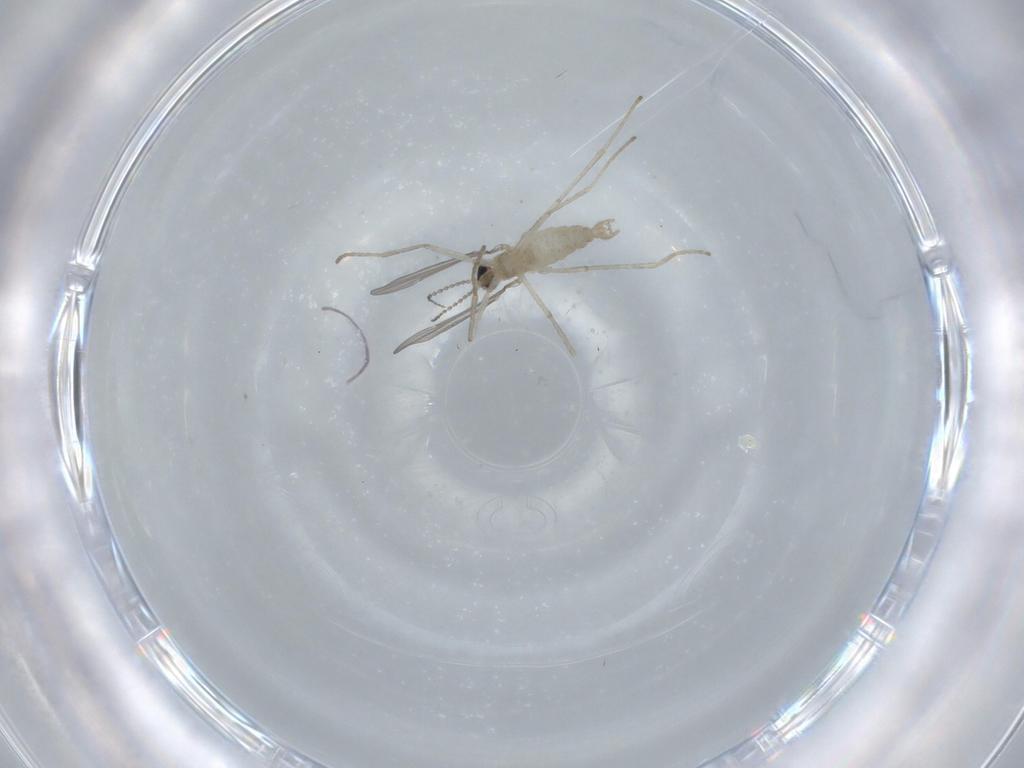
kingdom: Animalia
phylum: Arthropoda
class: Insecta
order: Diptera
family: Cecidomyiidae
